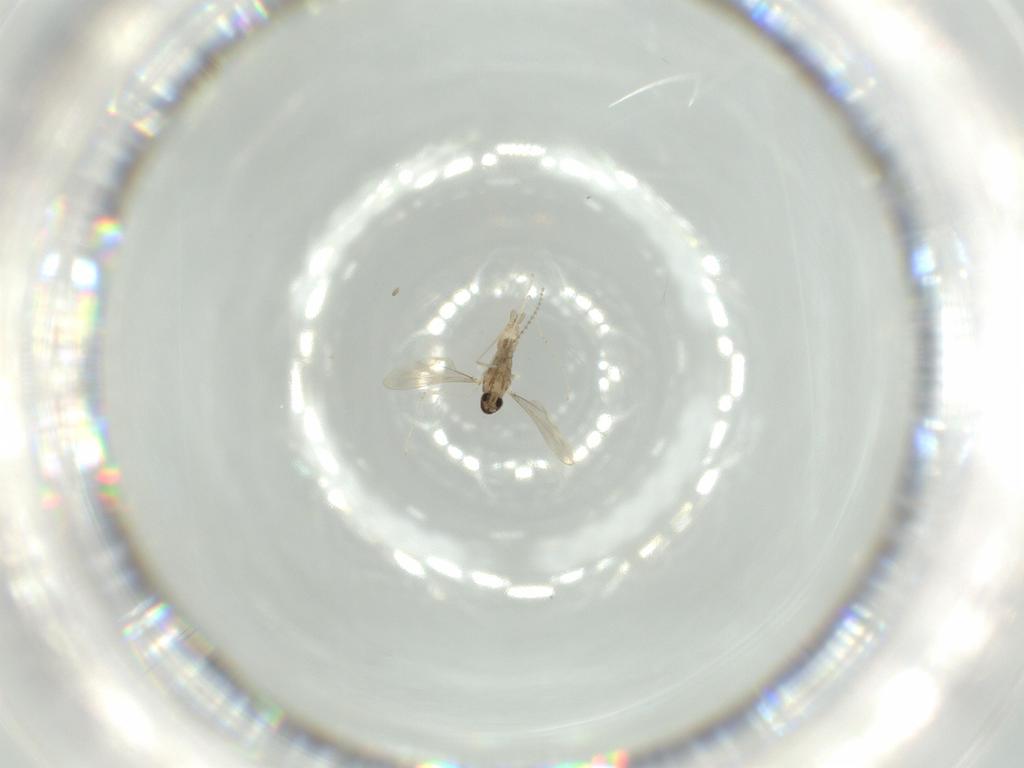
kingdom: Animalia
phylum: Arthropoda
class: Insecta
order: Diptera
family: Cecidomyiidae
